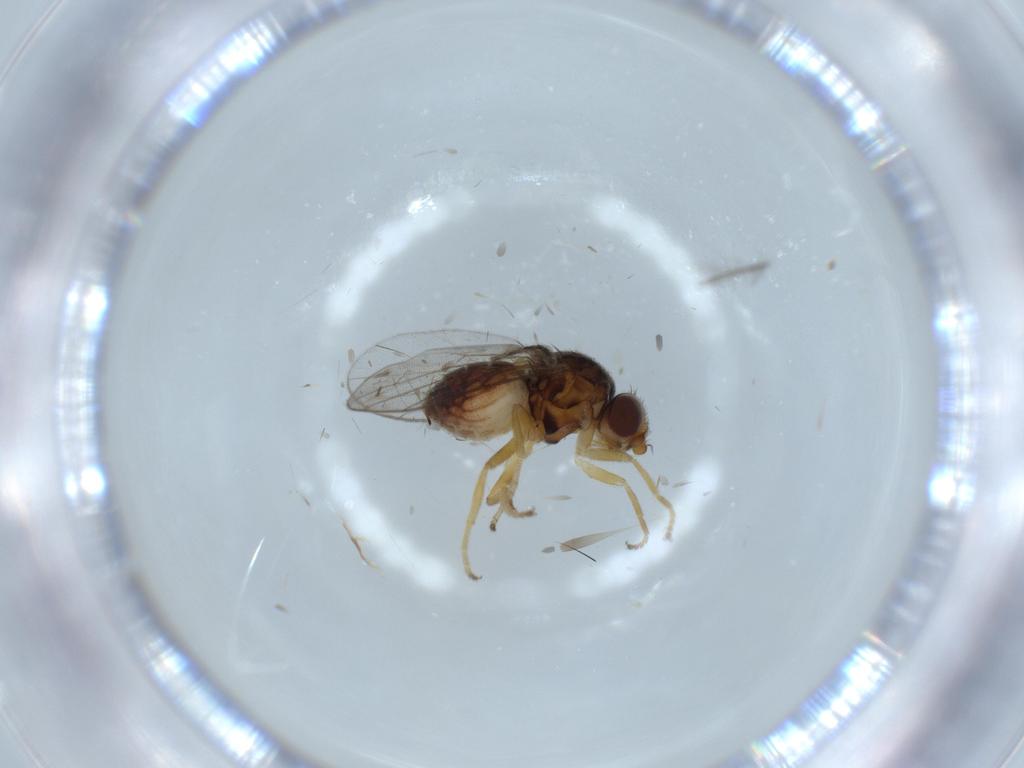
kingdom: Animalia
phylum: Arthropoda
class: Insecta
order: Diptera
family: Chloropidae
